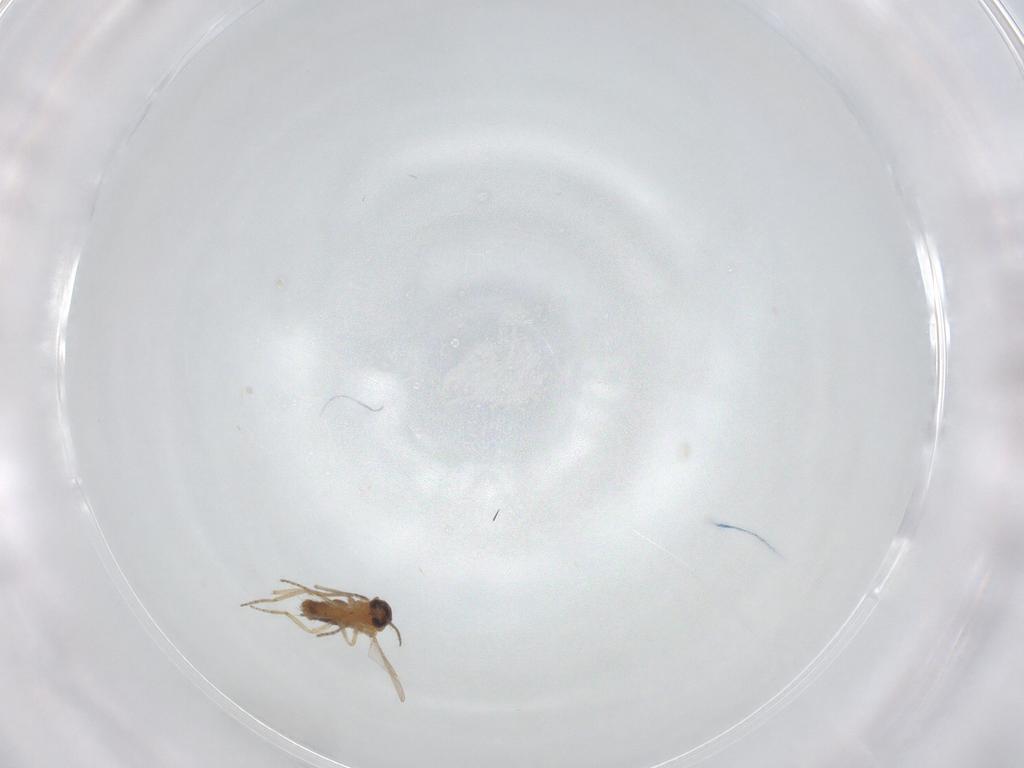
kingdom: Animalia
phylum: Arthropoda
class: Insecta
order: Diptera
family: Ceratopogonidae
